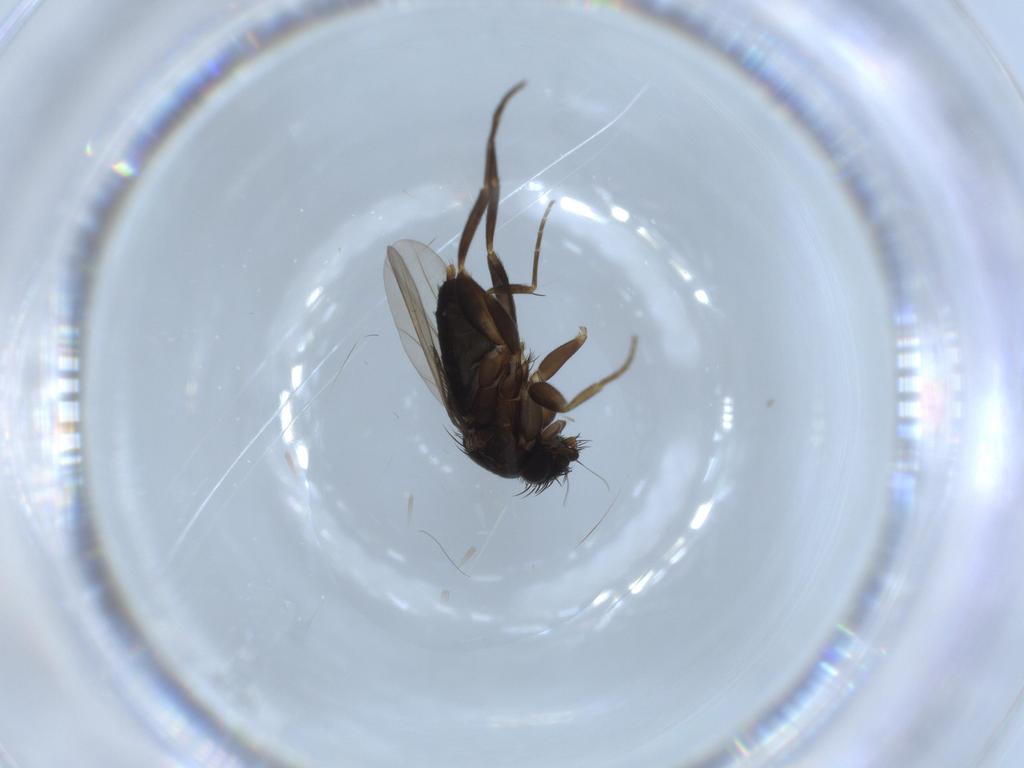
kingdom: Animalia
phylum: Arthropoda
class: Insecta
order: Diptera
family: Phoridae
